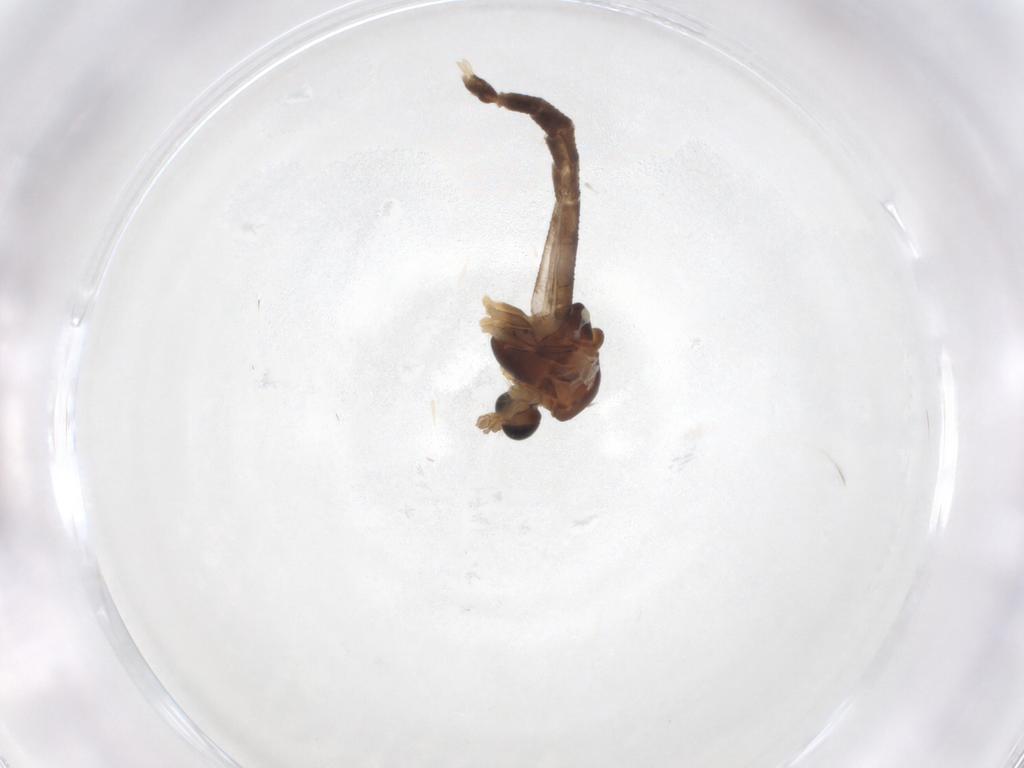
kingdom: Animalia
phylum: Arthropoda
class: Insecta
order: Diptera
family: Chironomidae
